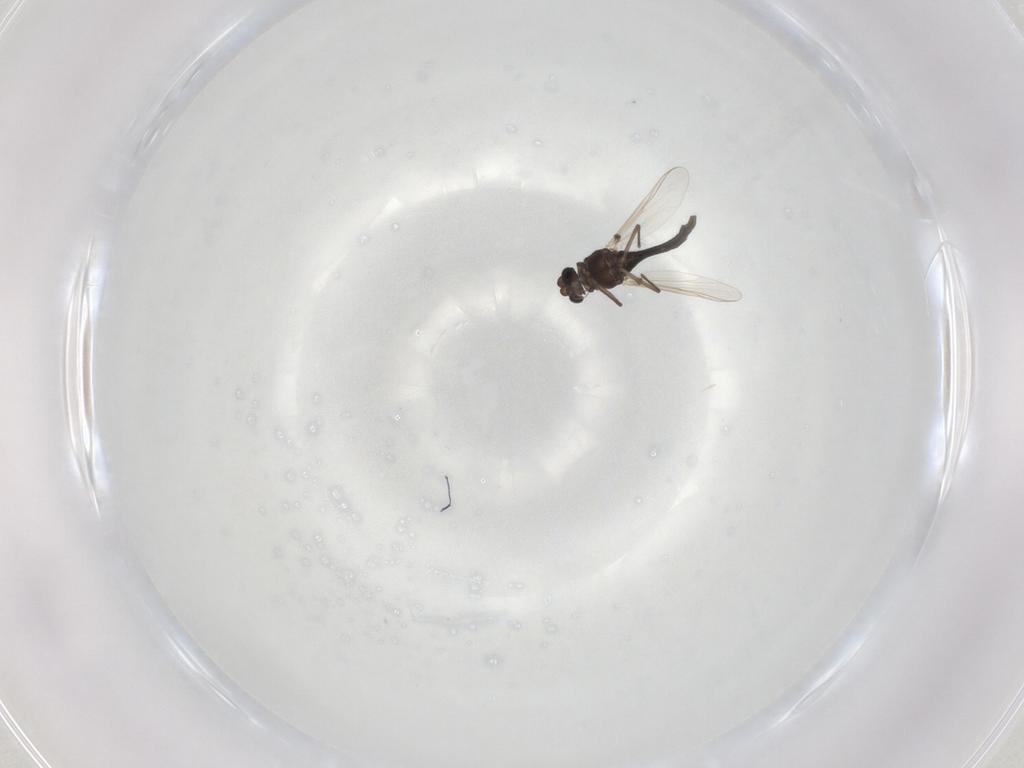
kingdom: Animalia
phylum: Arthropoda
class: Insecta
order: Diptera
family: Chironomidae
